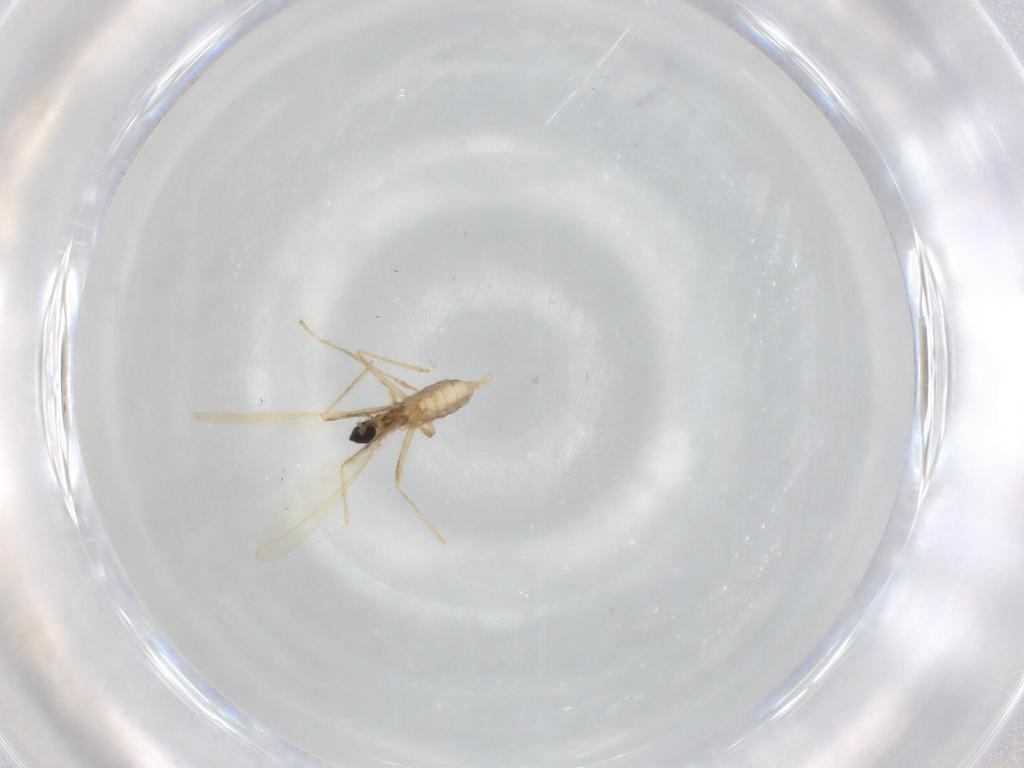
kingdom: Animalia
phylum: Arthropoda
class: Insecta
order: Diptera
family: Cecidomyiidae
